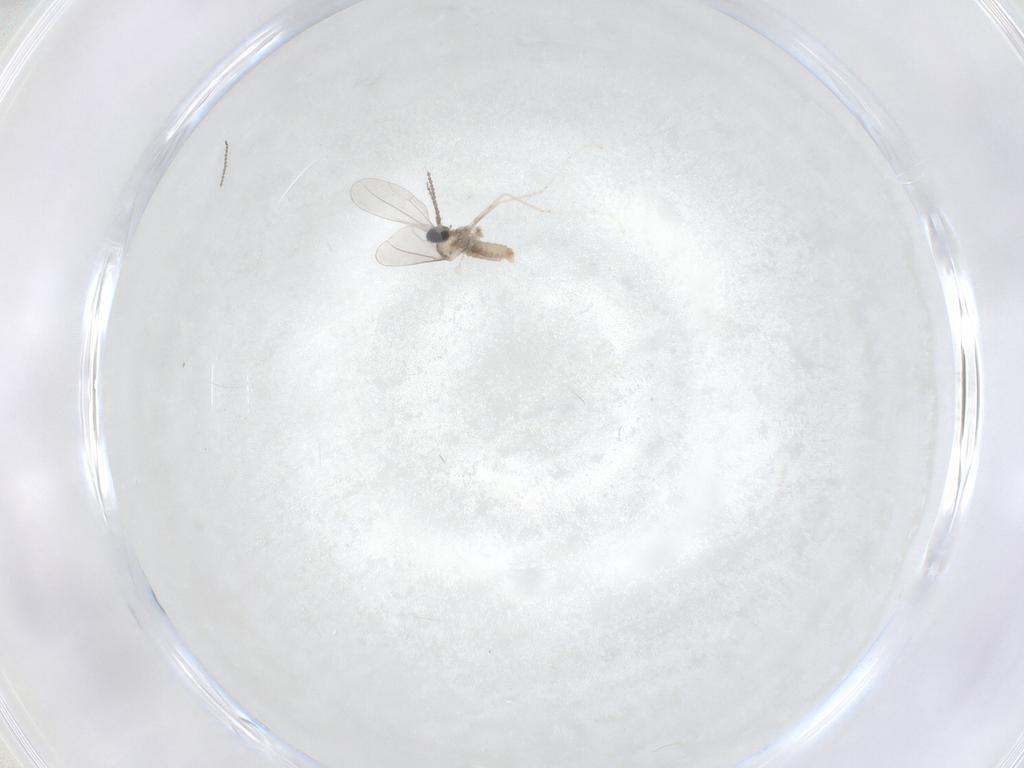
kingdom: Animalia
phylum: Arthropoda
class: Insecta
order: Diptera
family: Cecidomyiidae
